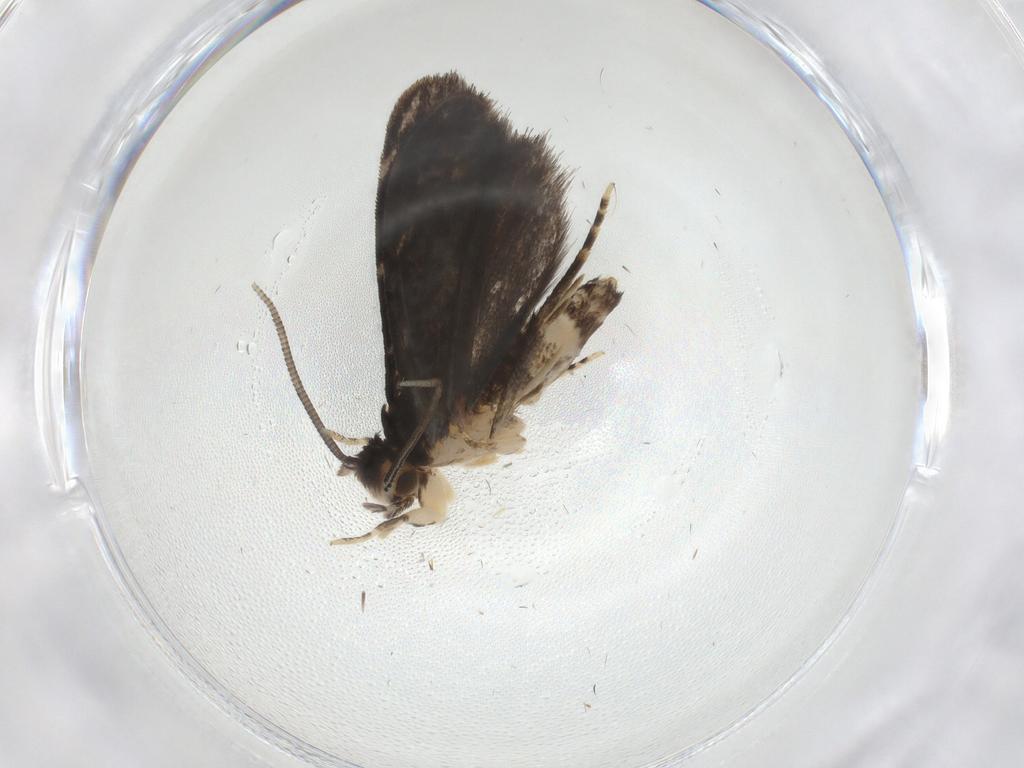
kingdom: Animalia
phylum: Arthropoda
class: Insecta
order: Lepidoptera
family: Dryadaulidae
